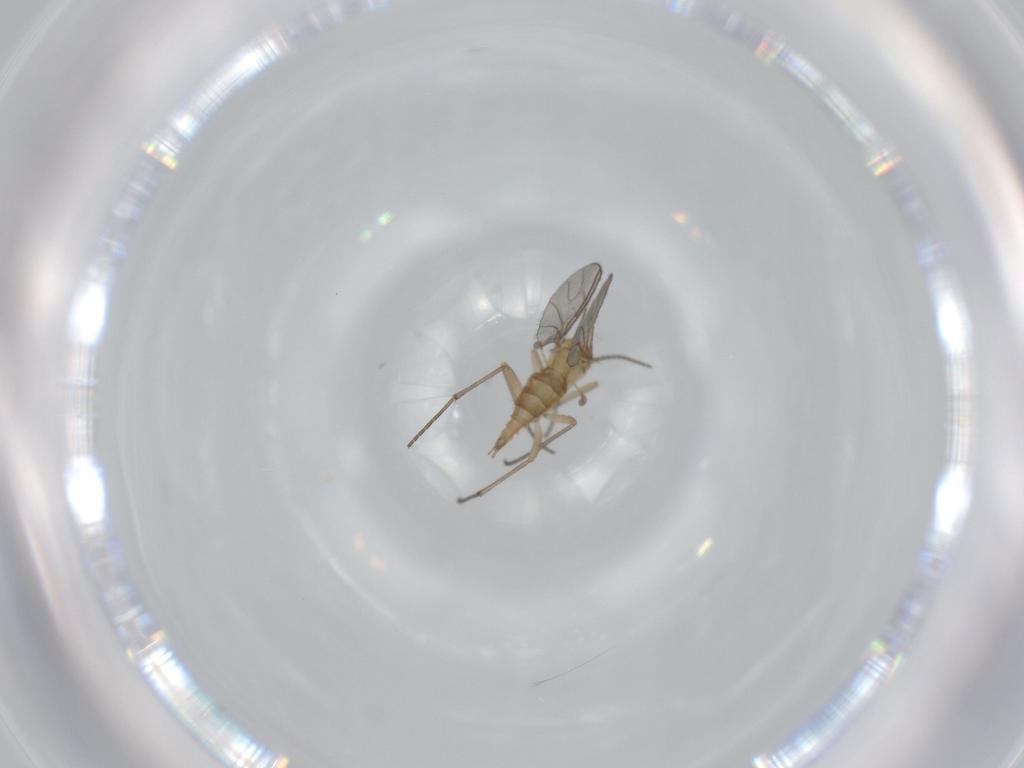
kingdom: Animalia
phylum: Arthropoda
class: Insecta
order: Diptera
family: Sciaridae
